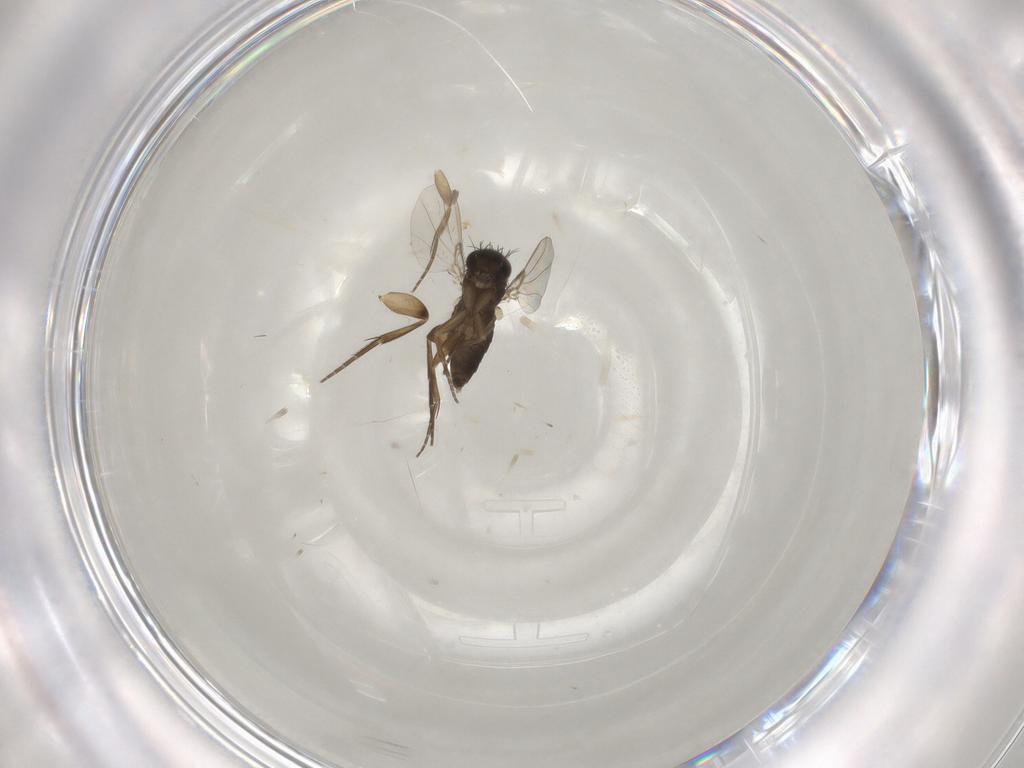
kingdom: Animalia
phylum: Arthropoda
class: Insecta
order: Diptera
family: Phoridae
